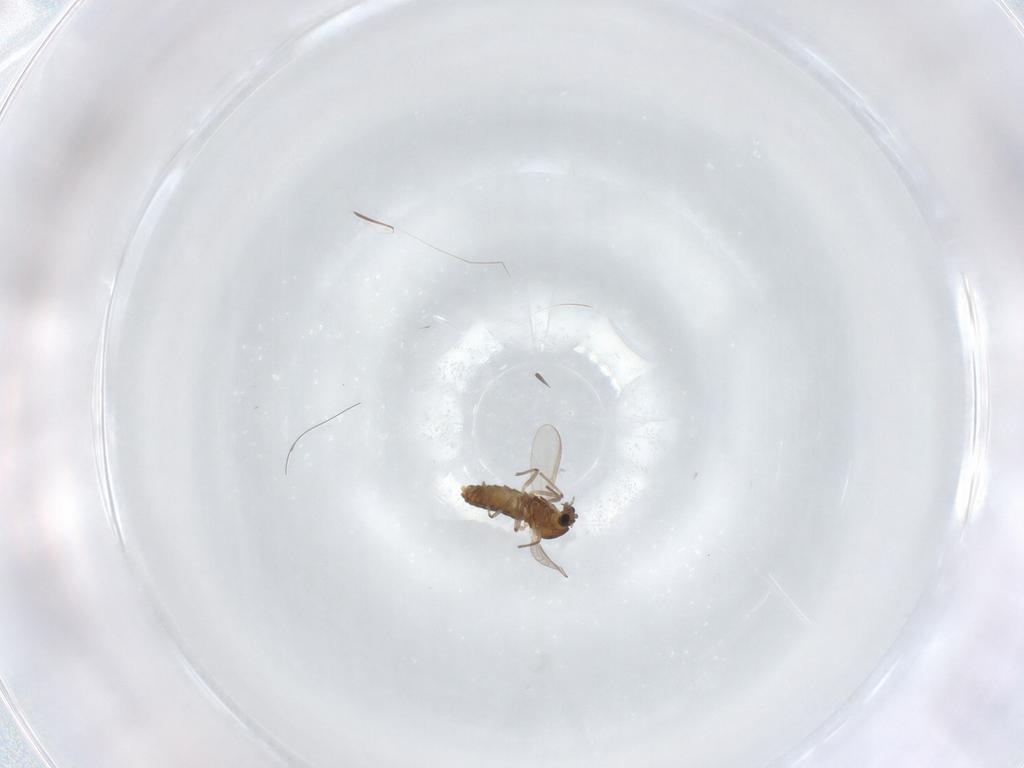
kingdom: Animalia
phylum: Arthropoda
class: Insecta
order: Diptera
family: Chironomidae
